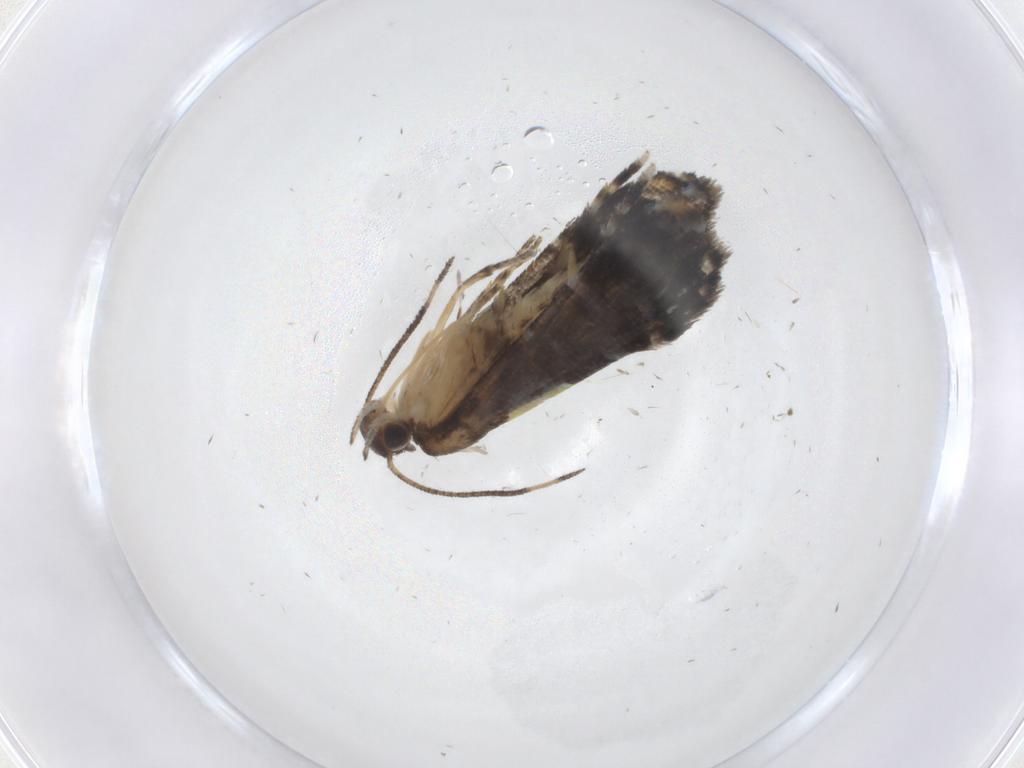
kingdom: Animalia
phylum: Arthropoda
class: Insecta
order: Lepidoptera
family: Glyphipterigidae
